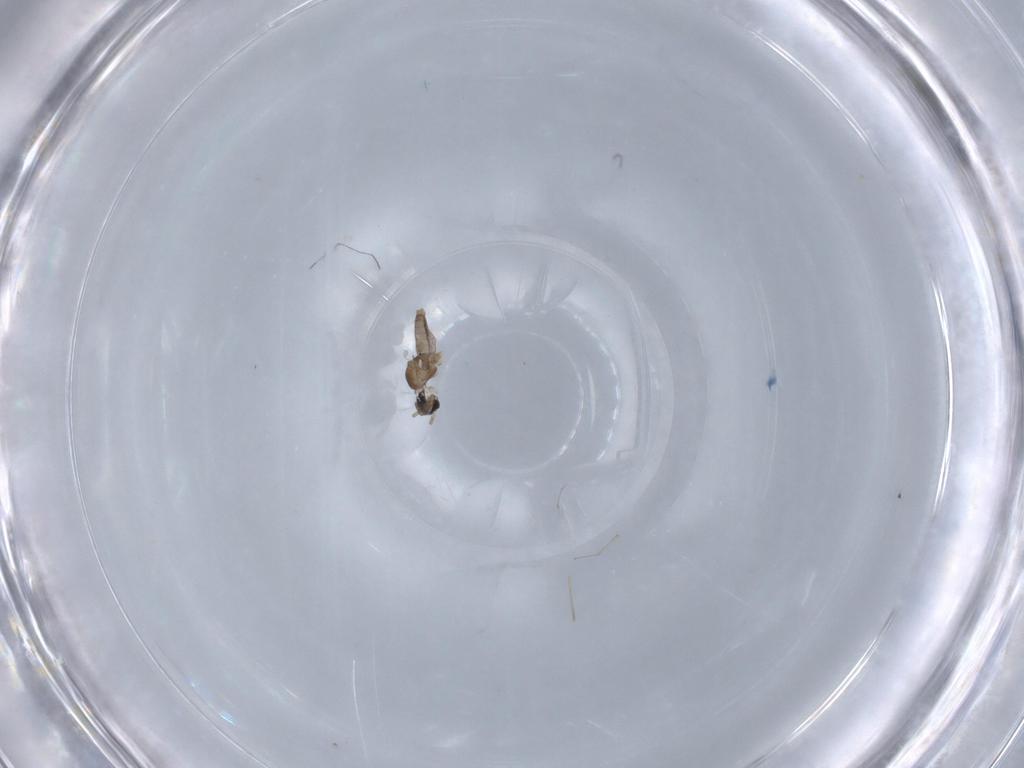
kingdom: Animalia
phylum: Arthropoda
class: Insecta
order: Diptera
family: Cecidomyiidae
